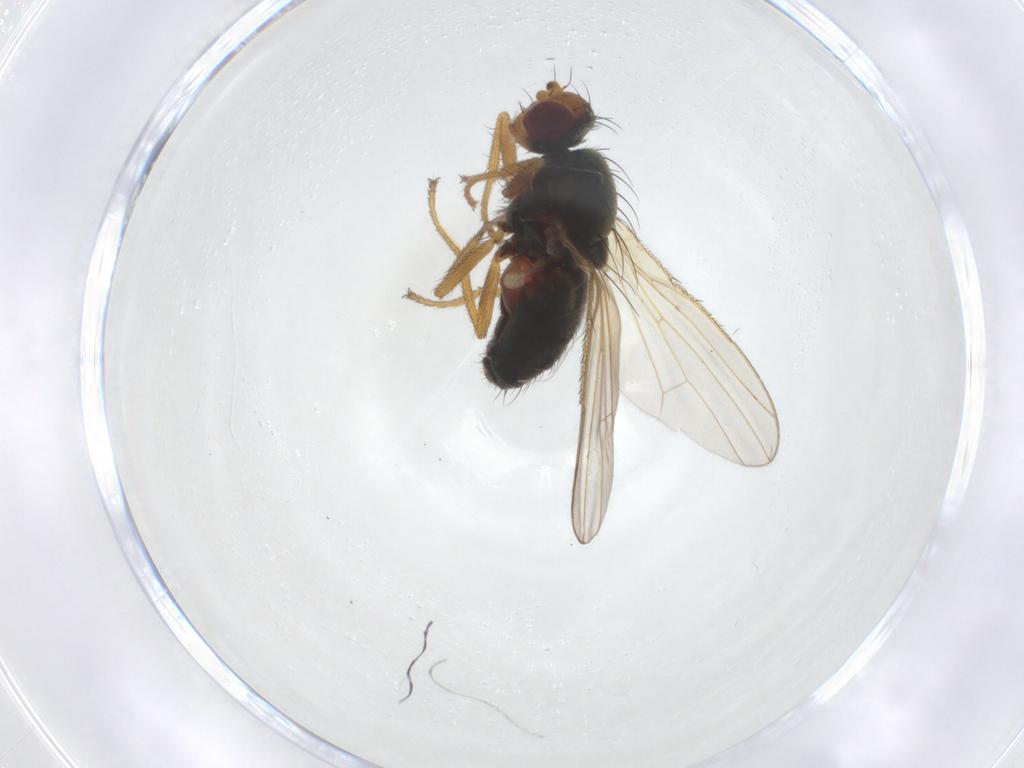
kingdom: Animalia
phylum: Arthropoda
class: Insecta
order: Diptera
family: Heleomyzidae
